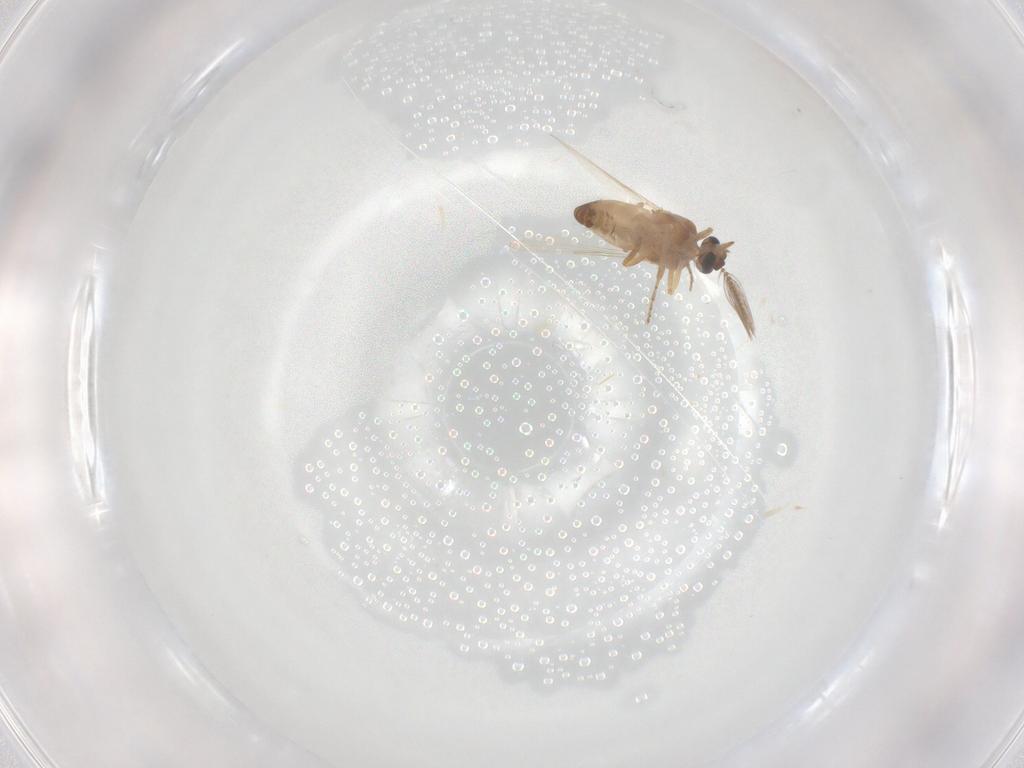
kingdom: Animalia
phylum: Arthropoda
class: Insecta
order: Diptera
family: Ceratopogonidae
